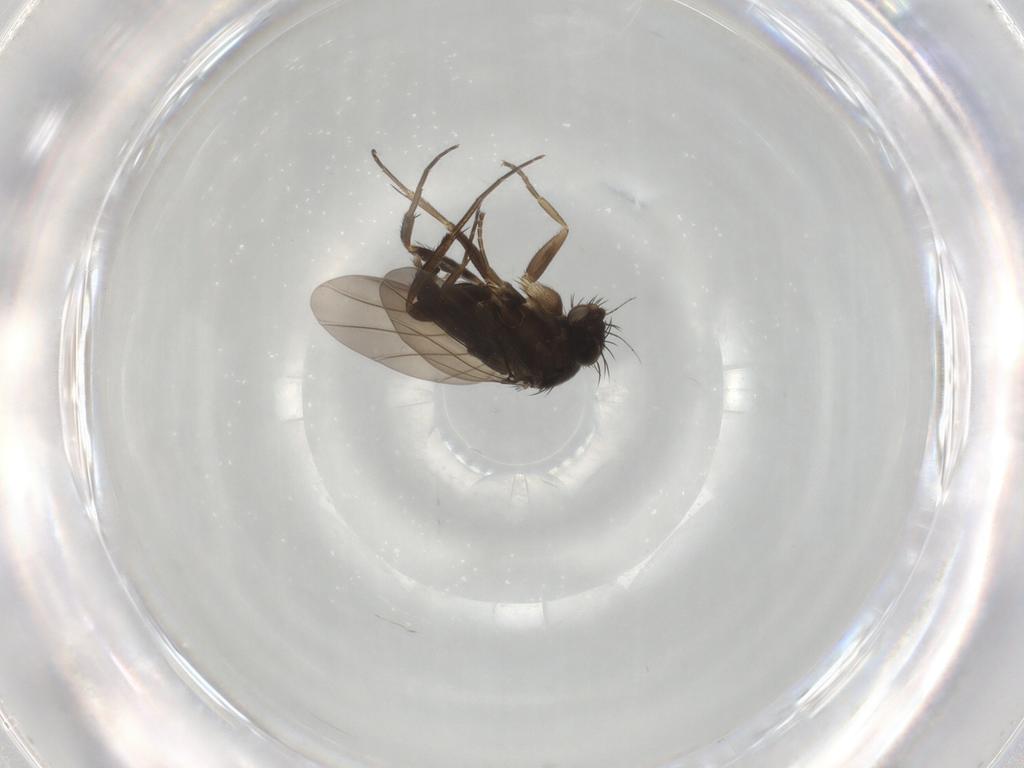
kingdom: Animalia
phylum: Arthropoda
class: Insecta
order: Diptera
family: Phoridae
